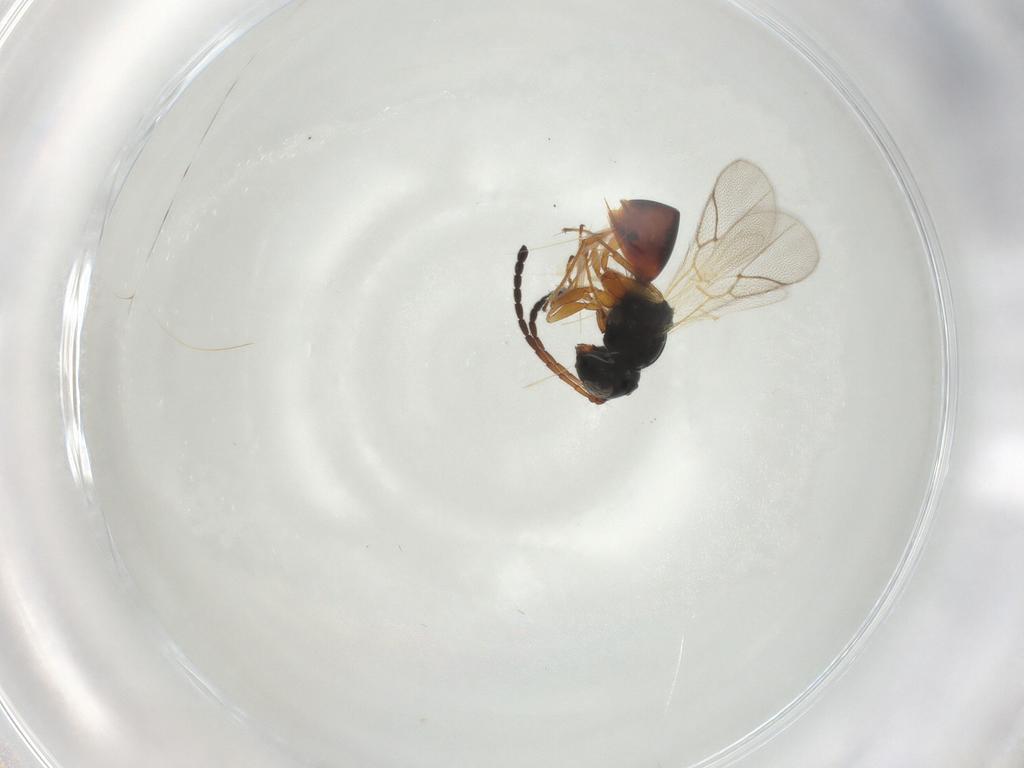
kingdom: Animalia
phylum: Arthropoda
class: Insecta
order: Hymenoptera
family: Figitidae
